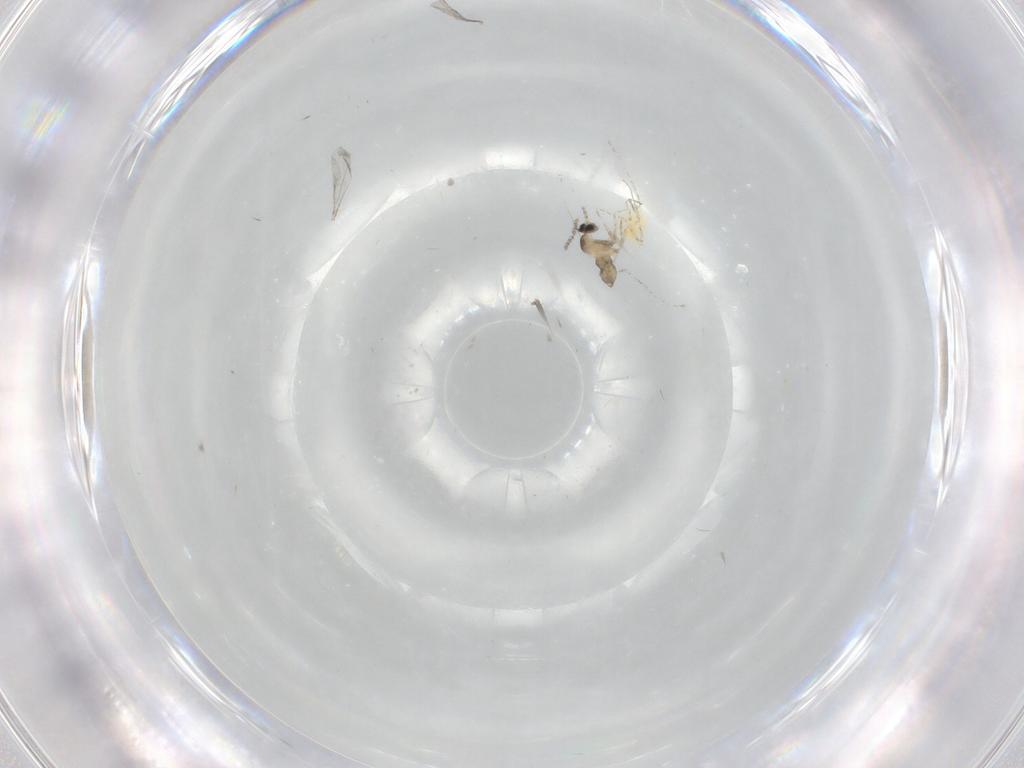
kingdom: Animalia
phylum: Arthropoda
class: Insecta
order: Diptera
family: Cecidomyiidae
